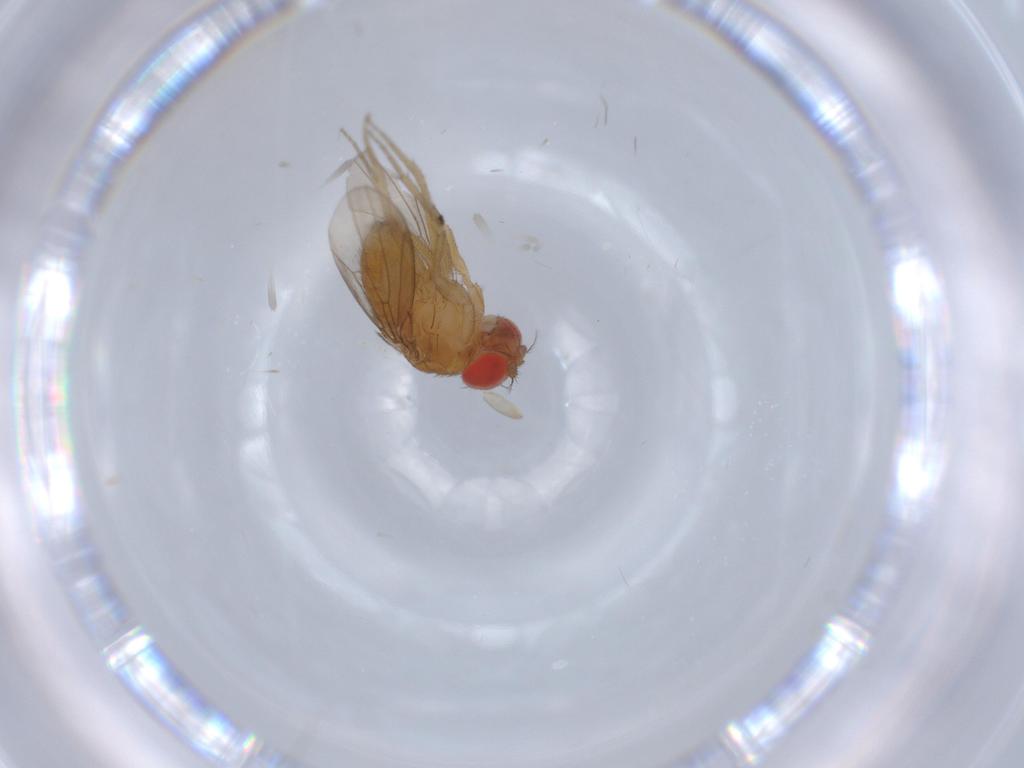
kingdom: Animalia
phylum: Arthropoda
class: Insecta
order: Diptera
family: Drosophilidae
